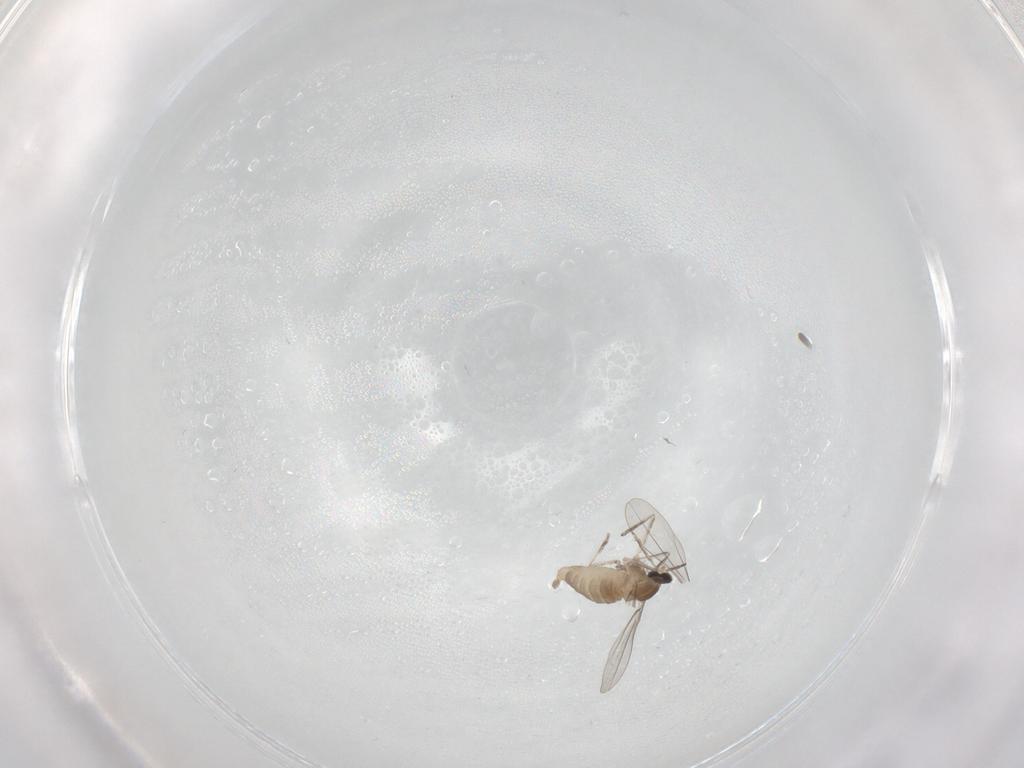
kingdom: Animalia
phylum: Arthropoda
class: Insecta
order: Diptera
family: Cecidomyiidae
